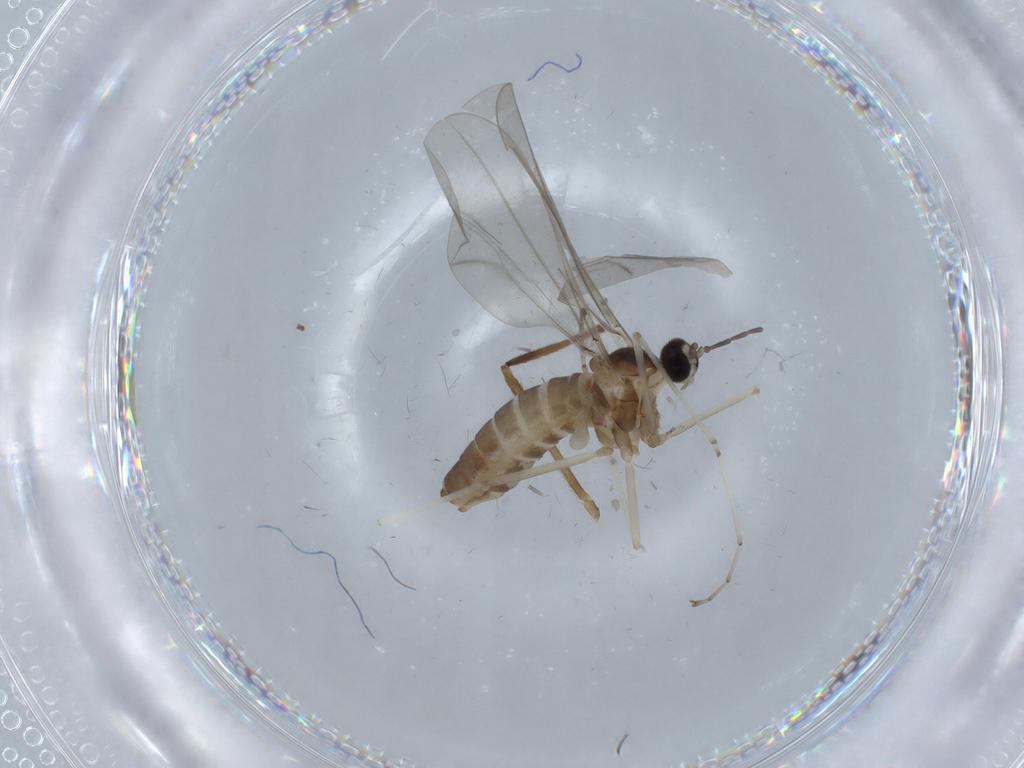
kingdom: Animalia
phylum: Arthropoda
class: Insecta
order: Diptera
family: Cecidomyiidae
